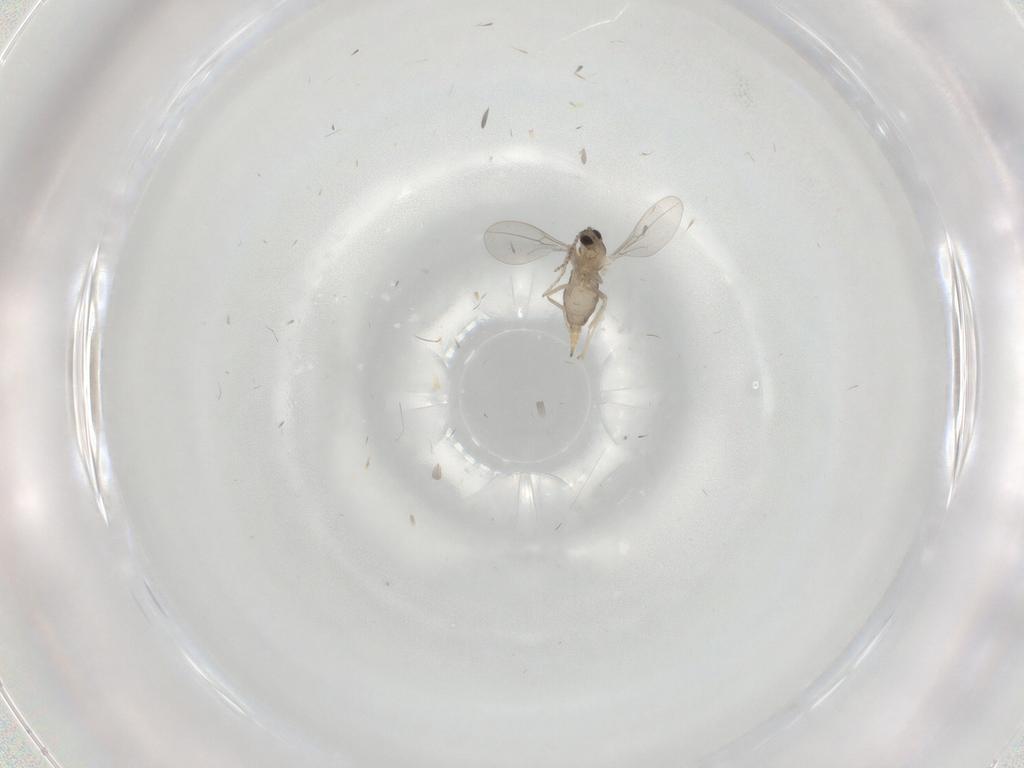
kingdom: Animalia
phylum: Arthropoda
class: Insecta
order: Diptera
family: Cecidomyiidae
